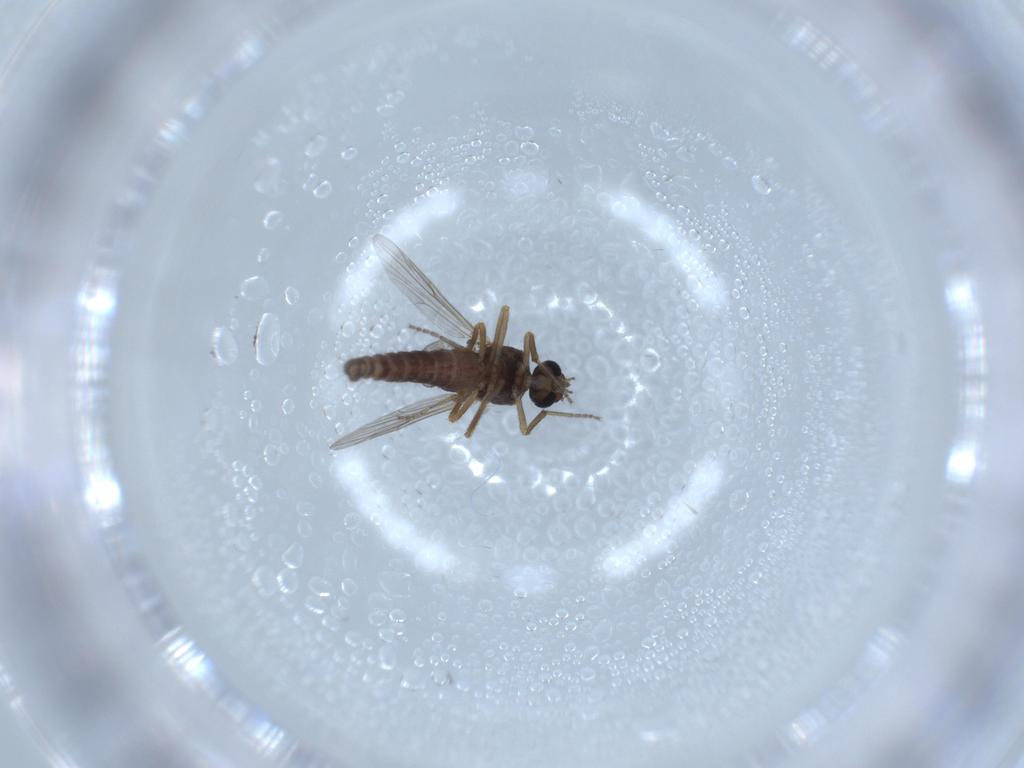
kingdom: Animalia
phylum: Arthropoda
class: Insecta
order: Diptera
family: Ceratopogonidae
